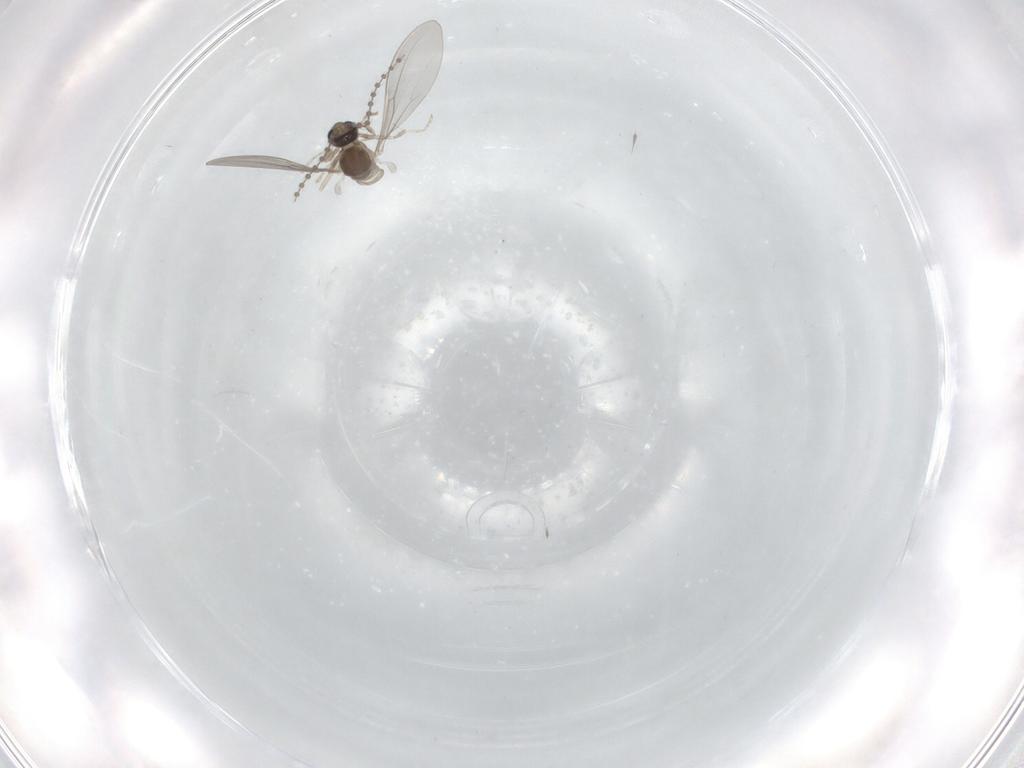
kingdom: Animalia
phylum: Arthropoda
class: Insecta
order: Diptera
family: Cecidomyiidae
